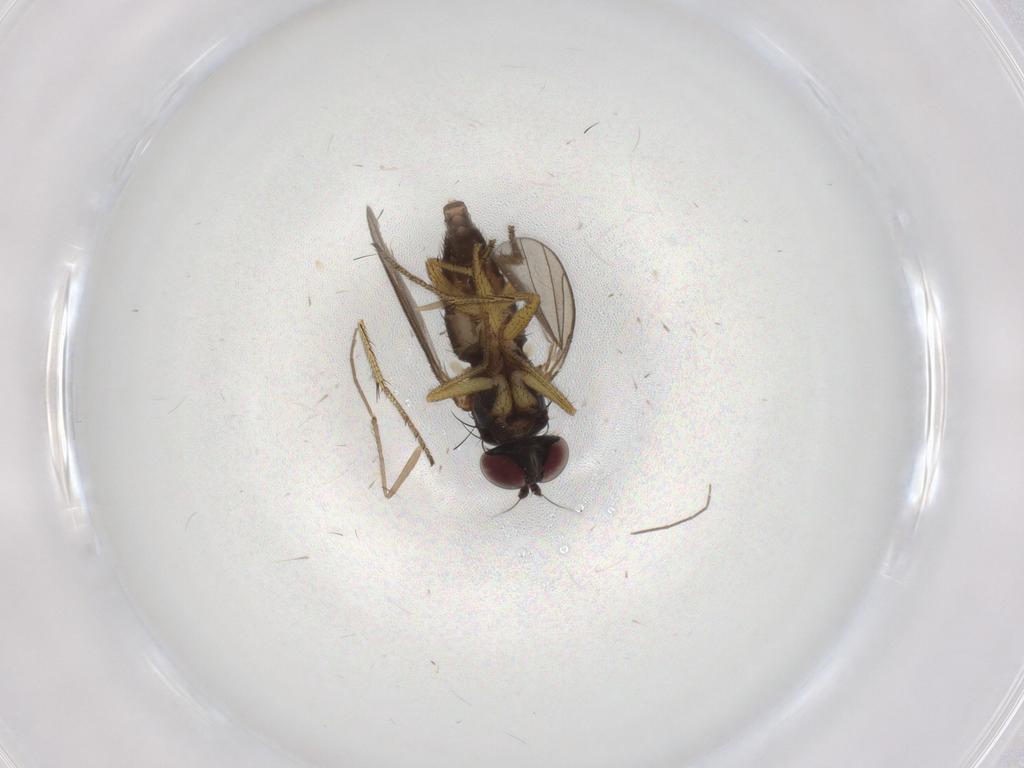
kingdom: Animalia
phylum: Arthropoda
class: Insecta
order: Diptera
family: Dolichopodidae
